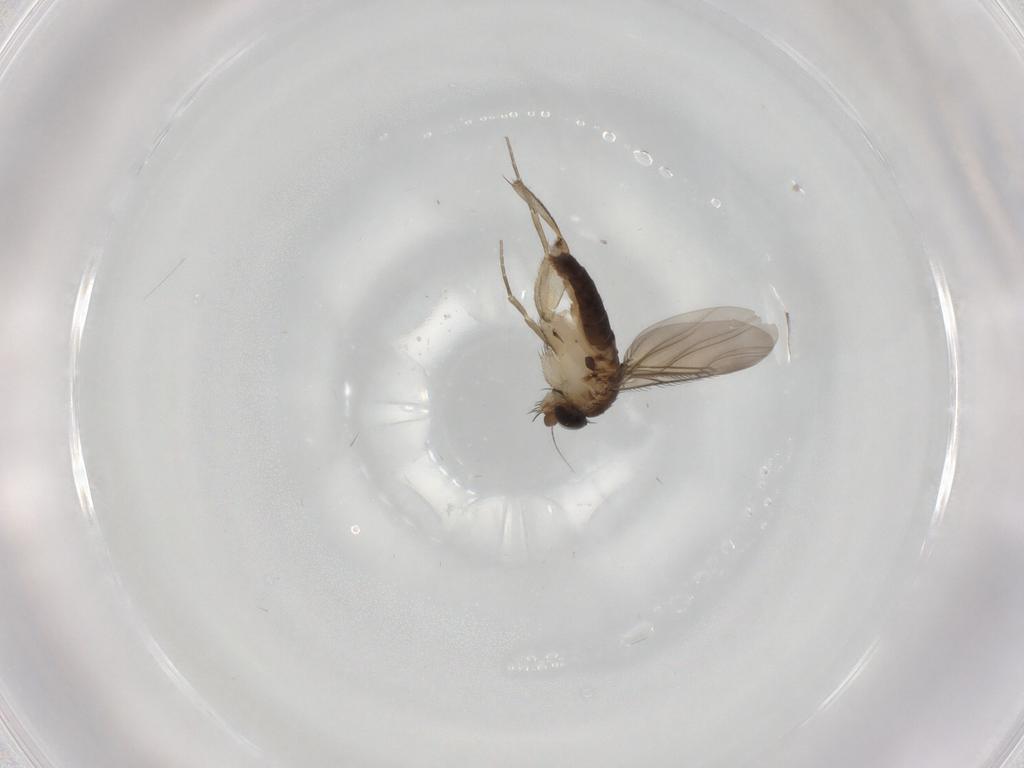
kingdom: Animalia
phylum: Arthropoda
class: Insecta
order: Diptera
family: Phoridae
